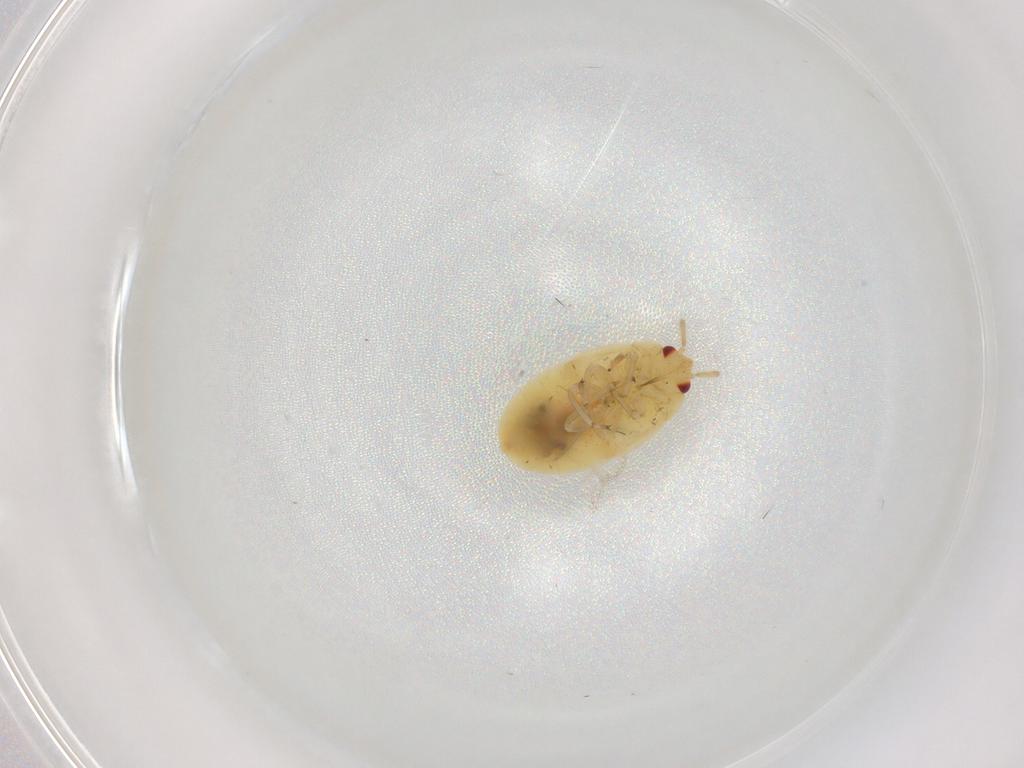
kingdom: Animalia
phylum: Arthropoda
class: Insecta
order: Hemiptera
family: Anthocoridae
